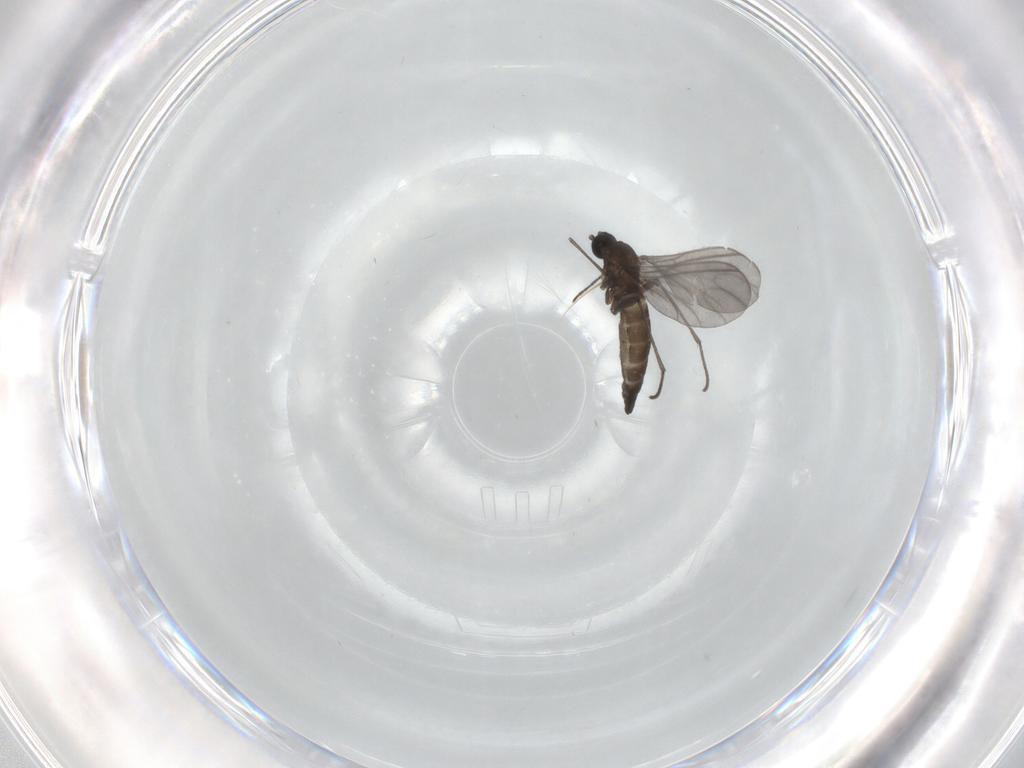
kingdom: Animalia
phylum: Arthropoda
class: Insecta
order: Diptera
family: Sciaridae
